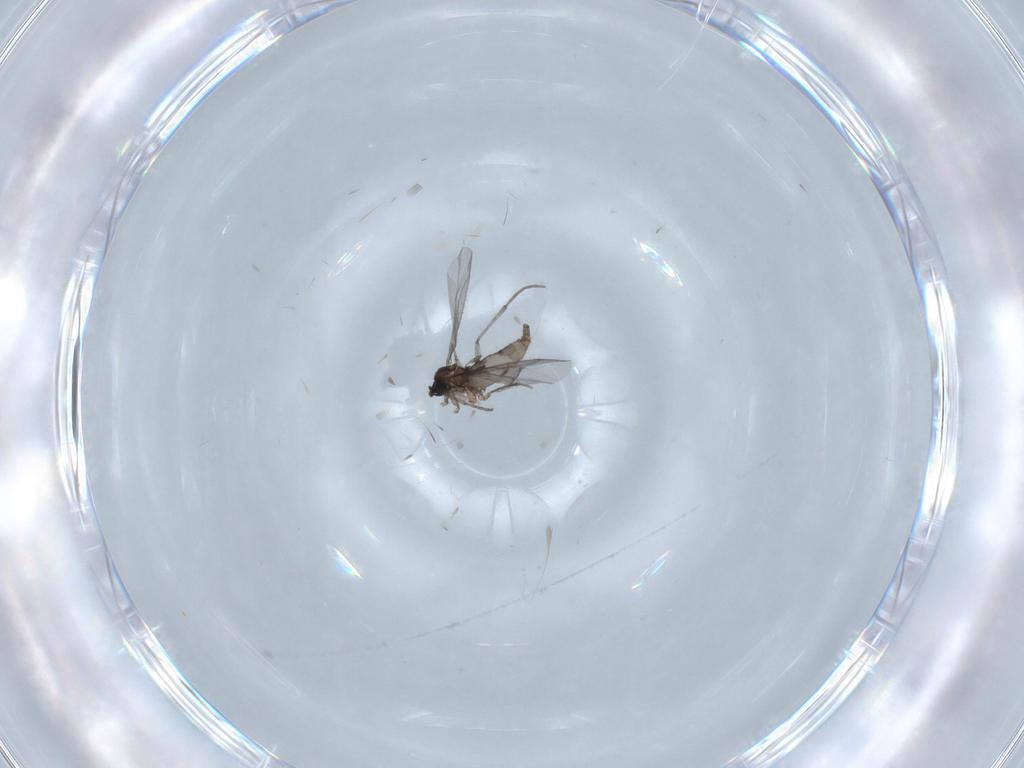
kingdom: Animalia
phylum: Arthropoda
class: Insecta
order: Diptera
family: Sciaridae
